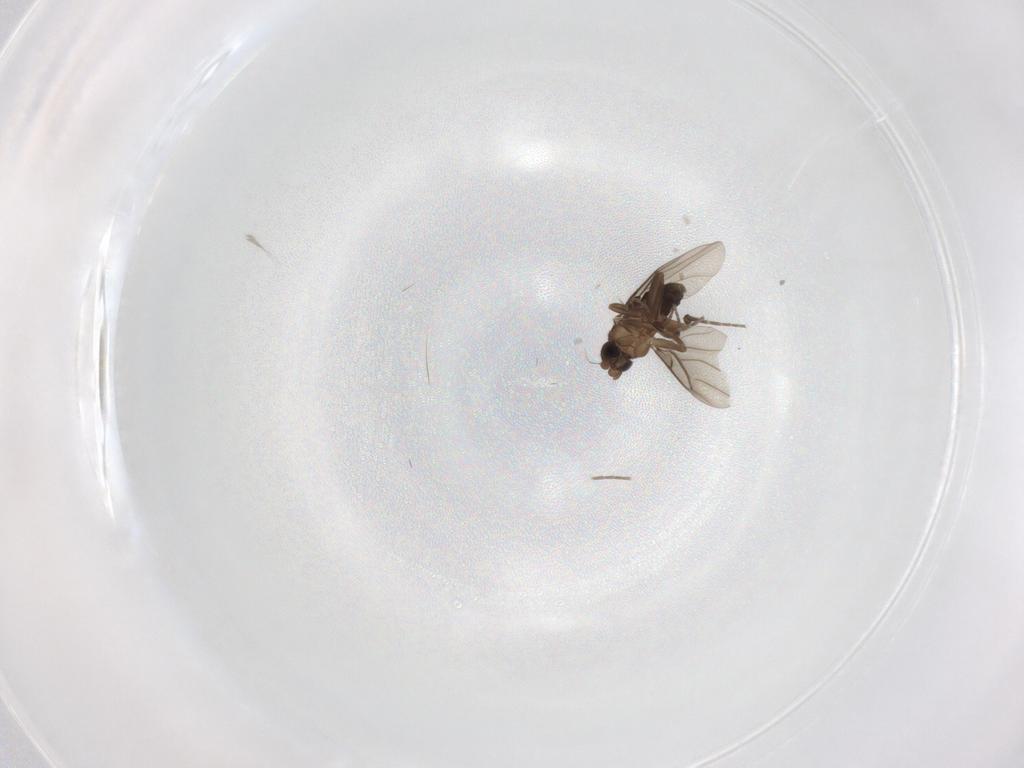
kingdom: Animalia
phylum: Arthropoda
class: Insecta
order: Diptera
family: Phoridae
